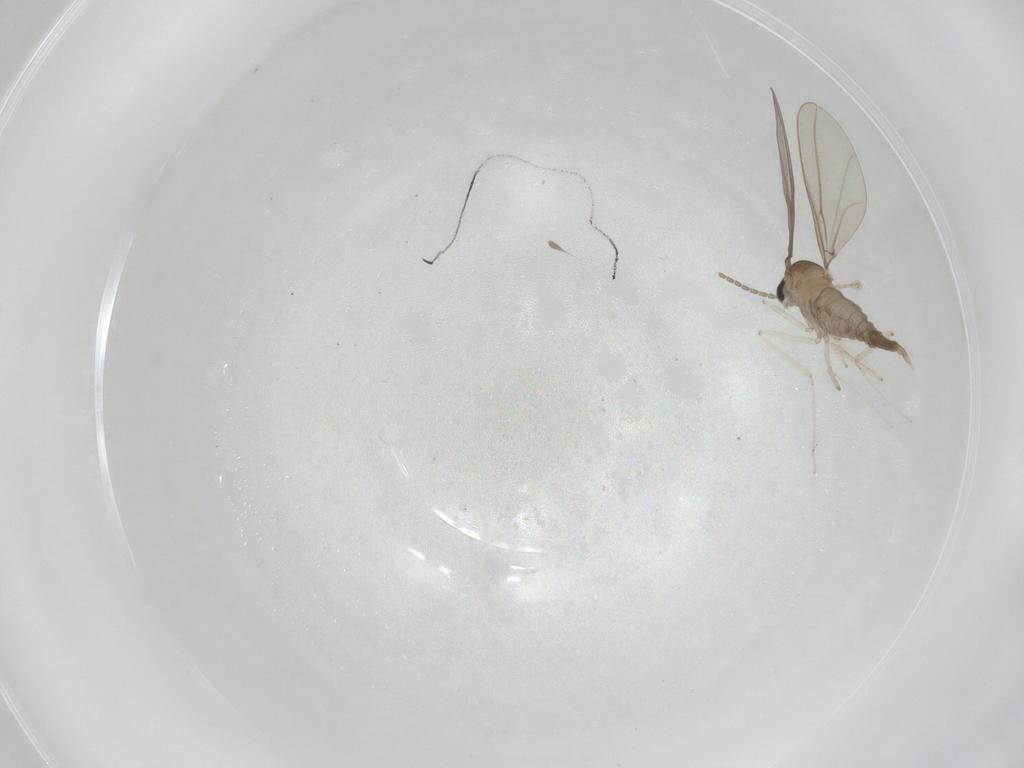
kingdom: Animalia
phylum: Arthropoda
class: Insecta
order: Diptera
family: Cecidomyiidae
